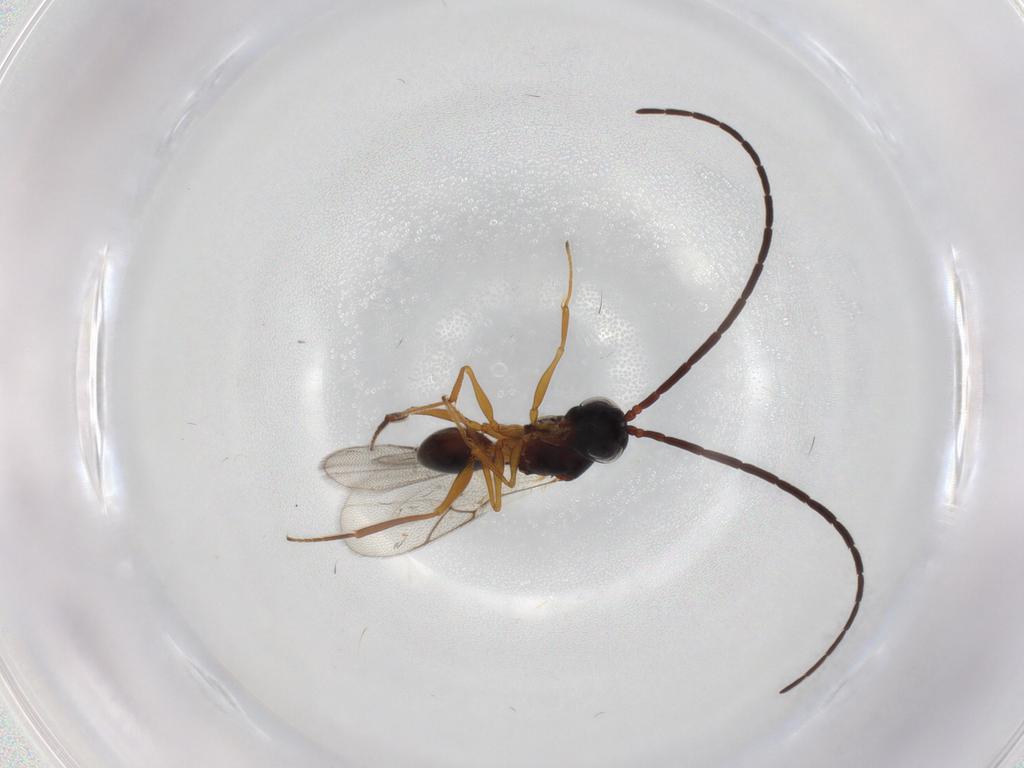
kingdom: Animalia
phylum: Arthropoda
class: Insecta
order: Hymenoptera
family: Figitidae
